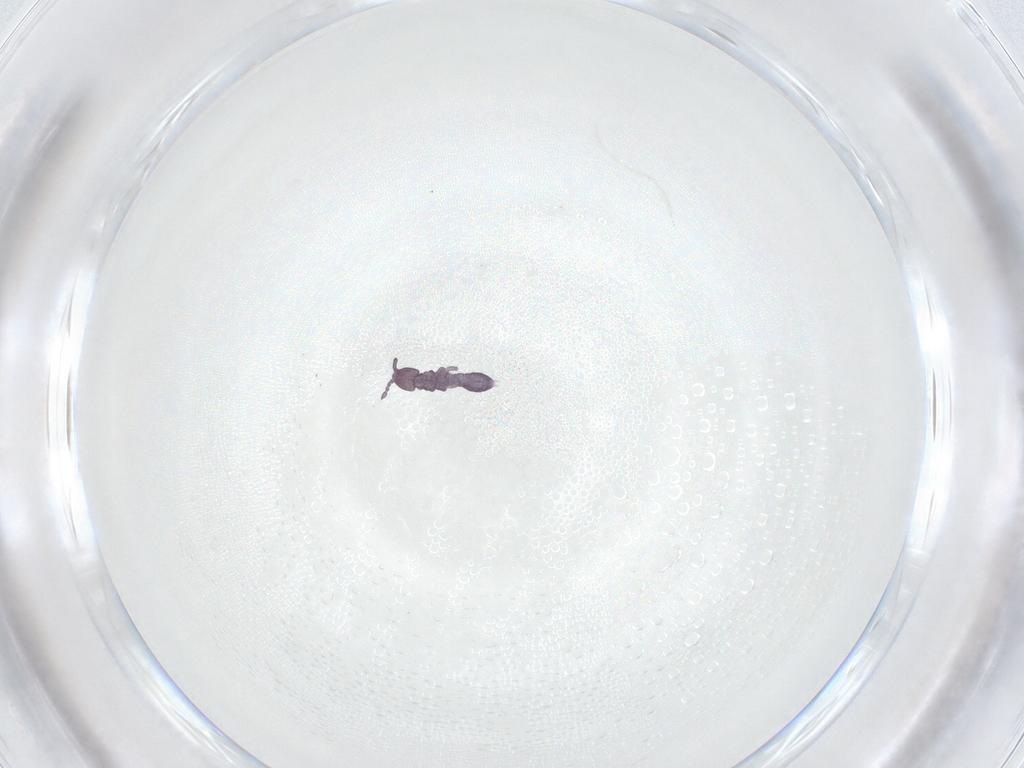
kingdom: Animalia
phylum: Arthropoda
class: Collembola
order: Entomobryomorpha
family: Isotomidae
